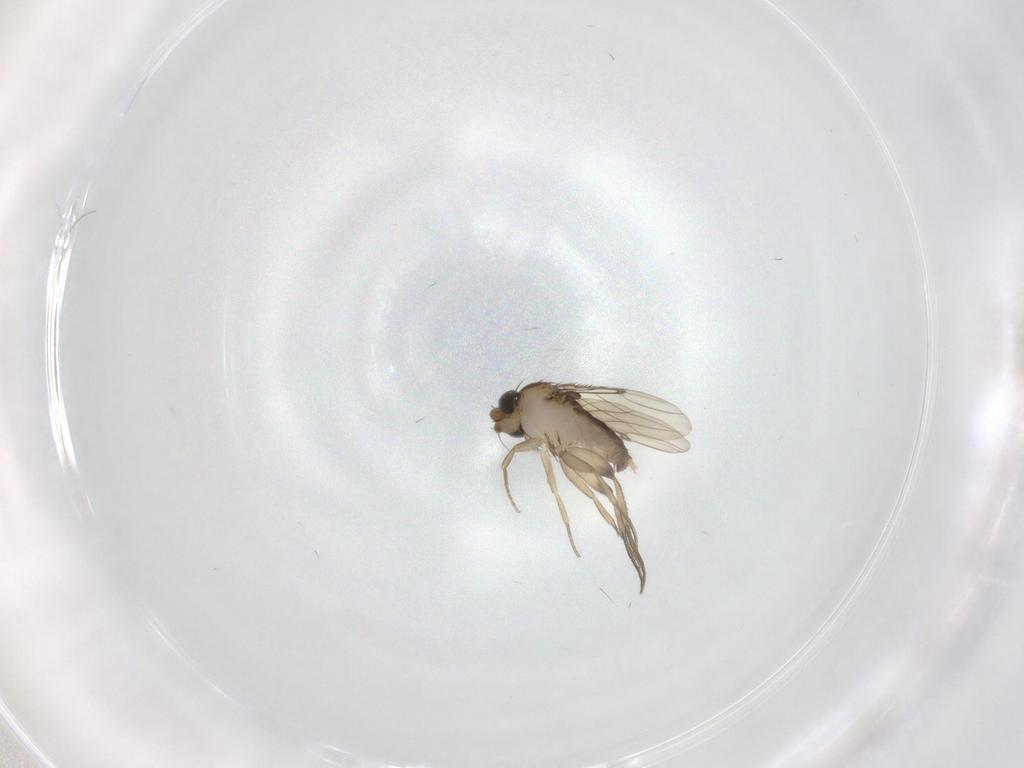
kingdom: Animalia
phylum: Arthropoda
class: Insecta
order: Diptera
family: Phoridae
